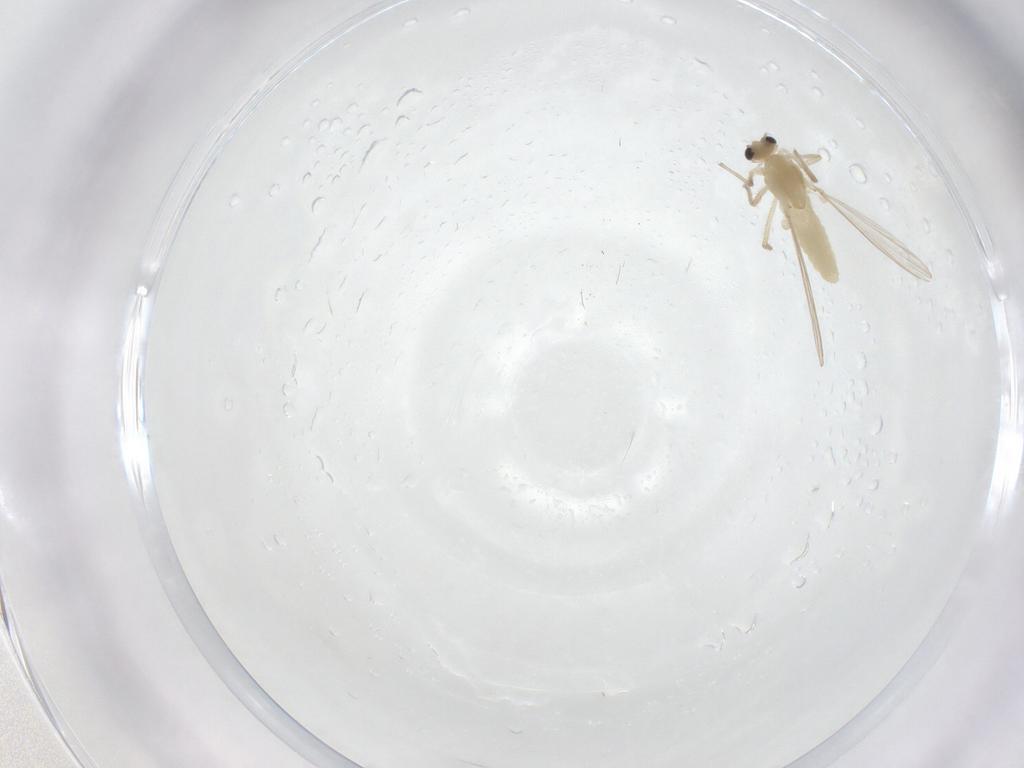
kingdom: Animalia
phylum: Arthropoda
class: Insecta
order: Diptera
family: Chironomidae
